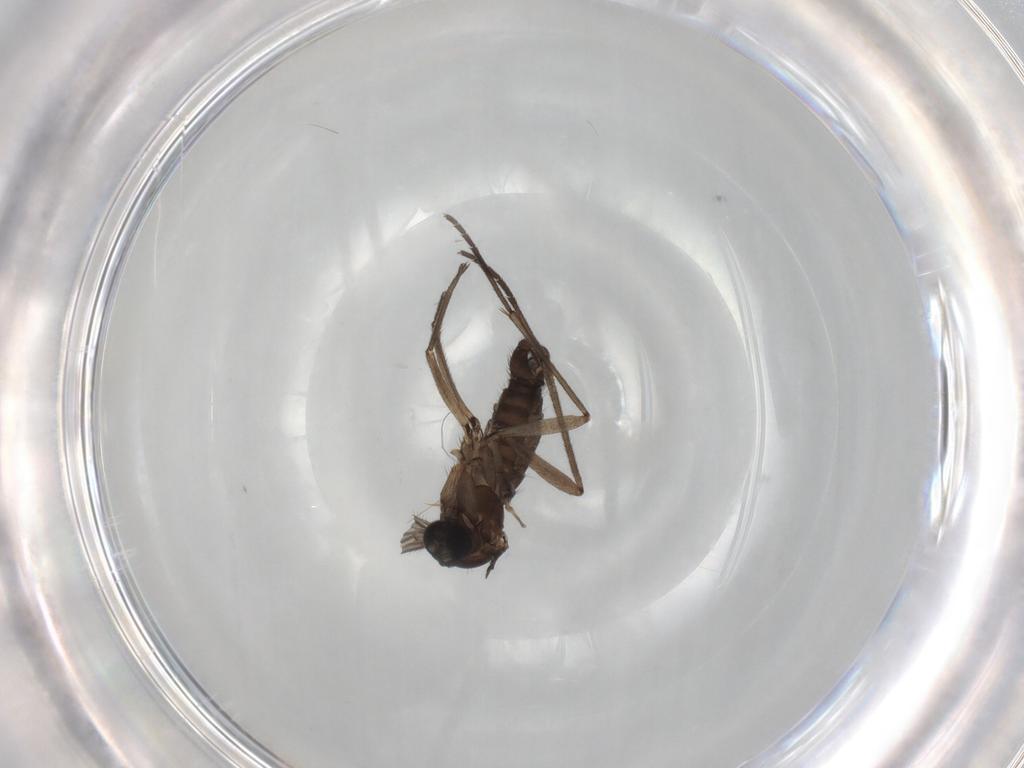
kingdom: Animalia
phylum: Arthropoda
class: Insecta
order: Diptera
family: Sciaridae
